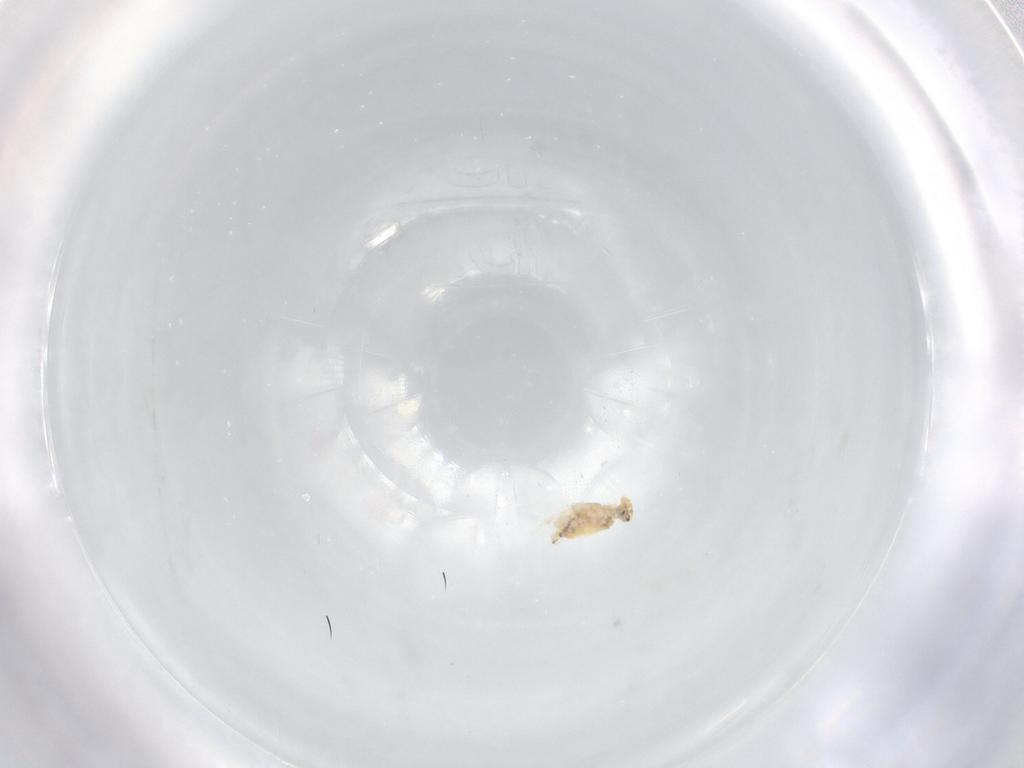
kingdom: Animalia
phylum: Arthropoda
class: Collembola
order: Symphypleona
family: Bourletiellidae
